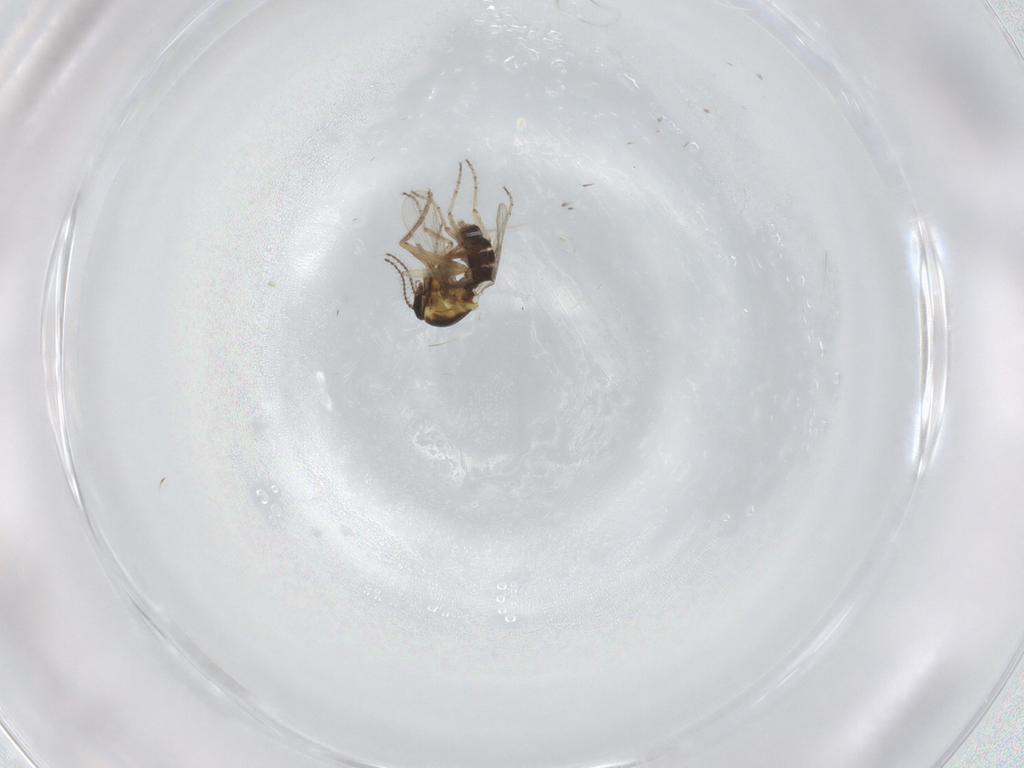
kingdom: Animalia
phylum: Arthropoda
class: Insecta
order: Diptera
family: Ceratopogonidae
